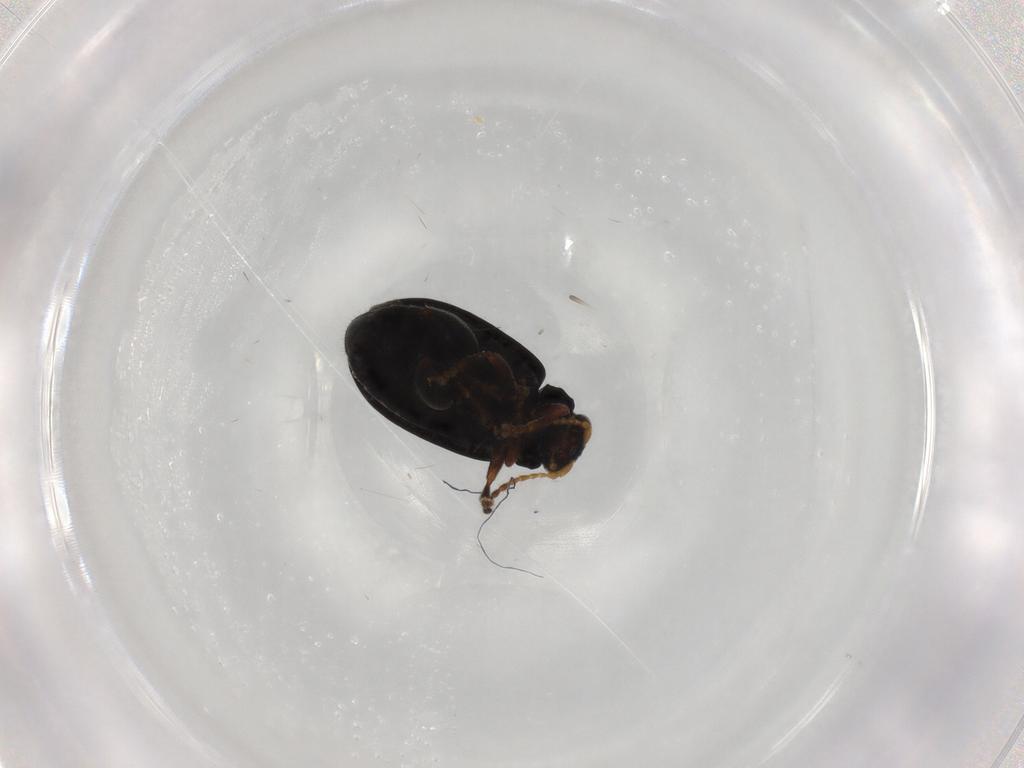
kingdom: Animalia
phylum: Arthropoda
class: Insecta
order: Coleoptera
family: Chrysomelidae
